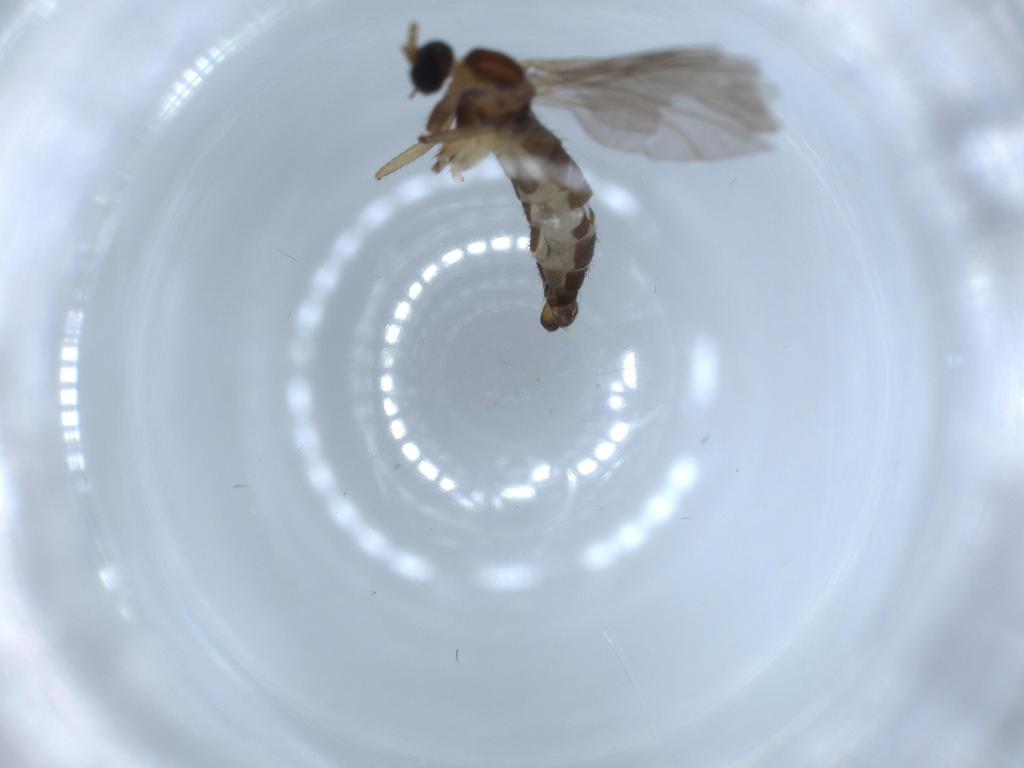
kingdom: Animalia
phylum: Arthropoda
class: Insecta
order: Diptera
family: Sciaridae
